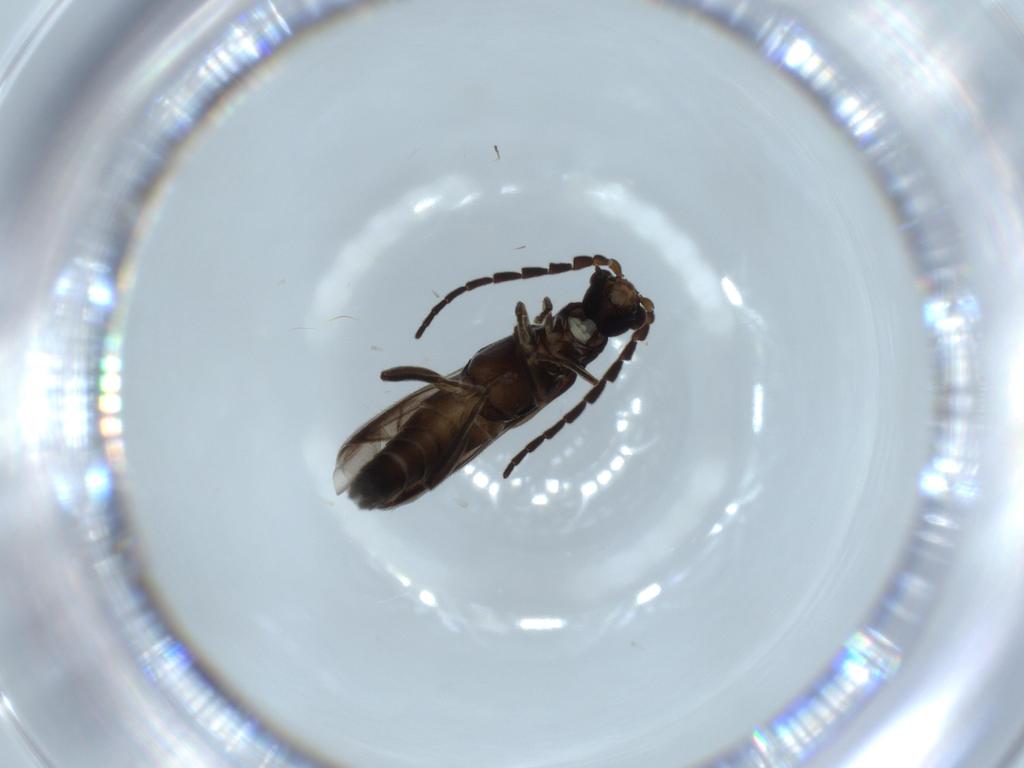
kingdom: Animalia
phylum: Arthropoda
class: Insecta
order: Coleoptera
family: Cantharidae
